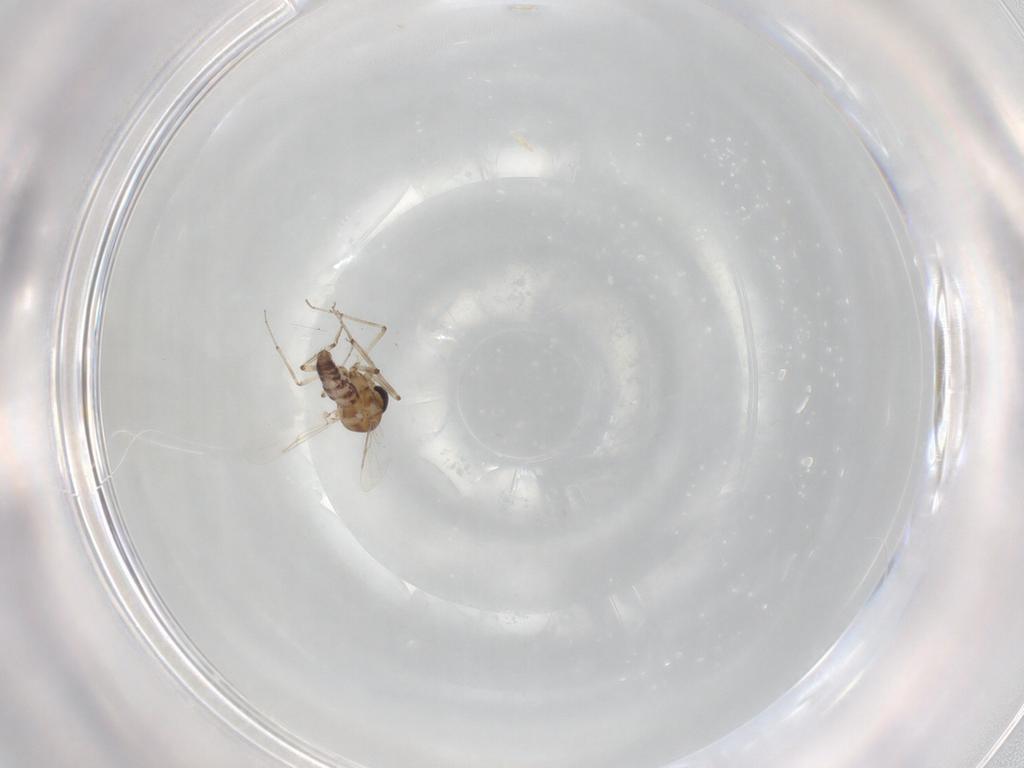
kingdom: Animalia
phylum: Arthropoda
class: Insecta
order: Diptera
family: Ceratopogonidae
